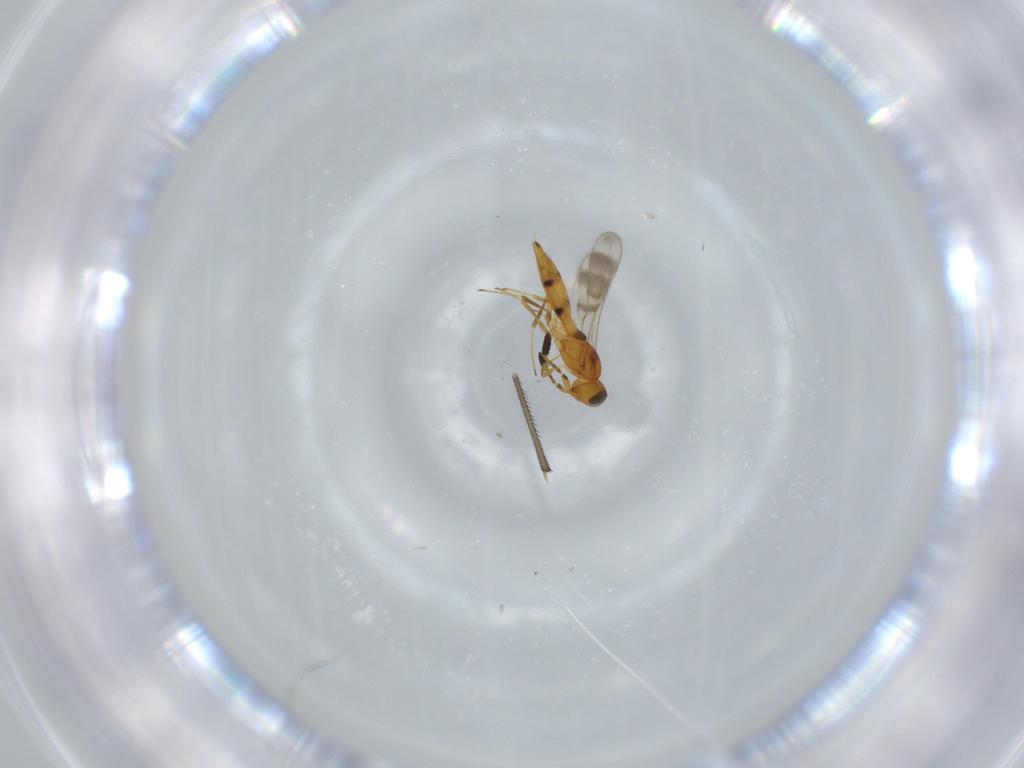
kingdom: Animalia
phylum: Arthropoda
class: Insecta
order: Hymenoptera
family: Scelionidae
